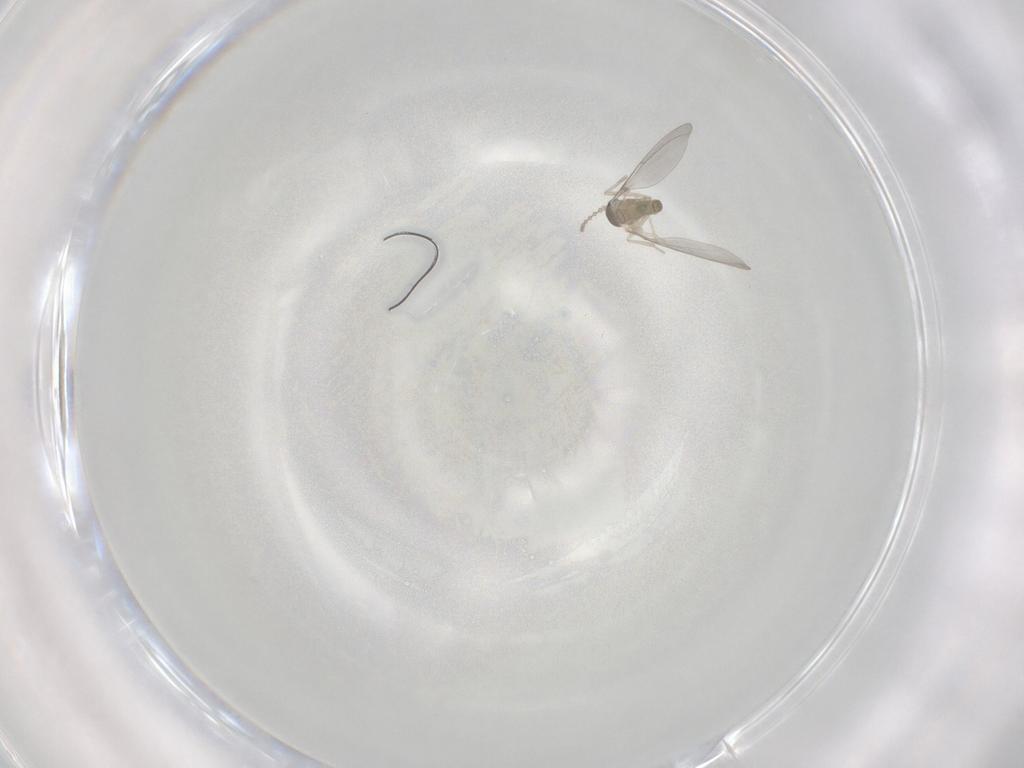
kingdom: Animalia
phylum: Arthropoda
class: Insecta
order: Diptera
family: Cecidomyiidae
